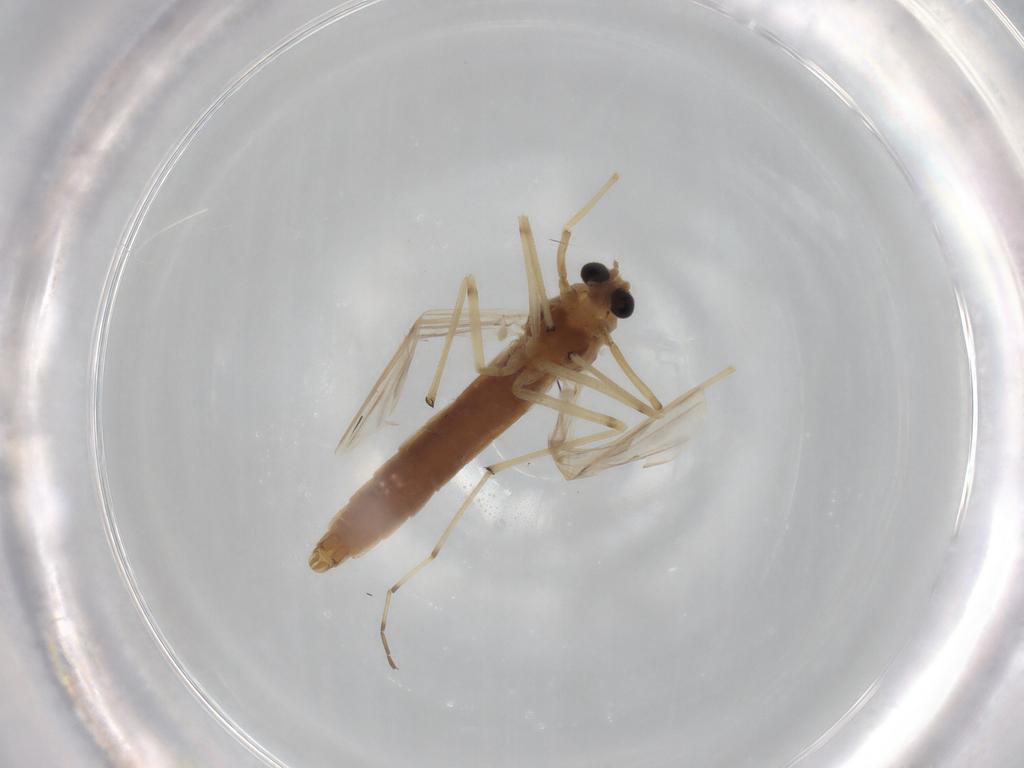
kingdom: Animalia
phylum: Arthropoda
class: Insecta
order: Diptera
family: Chironomidae
